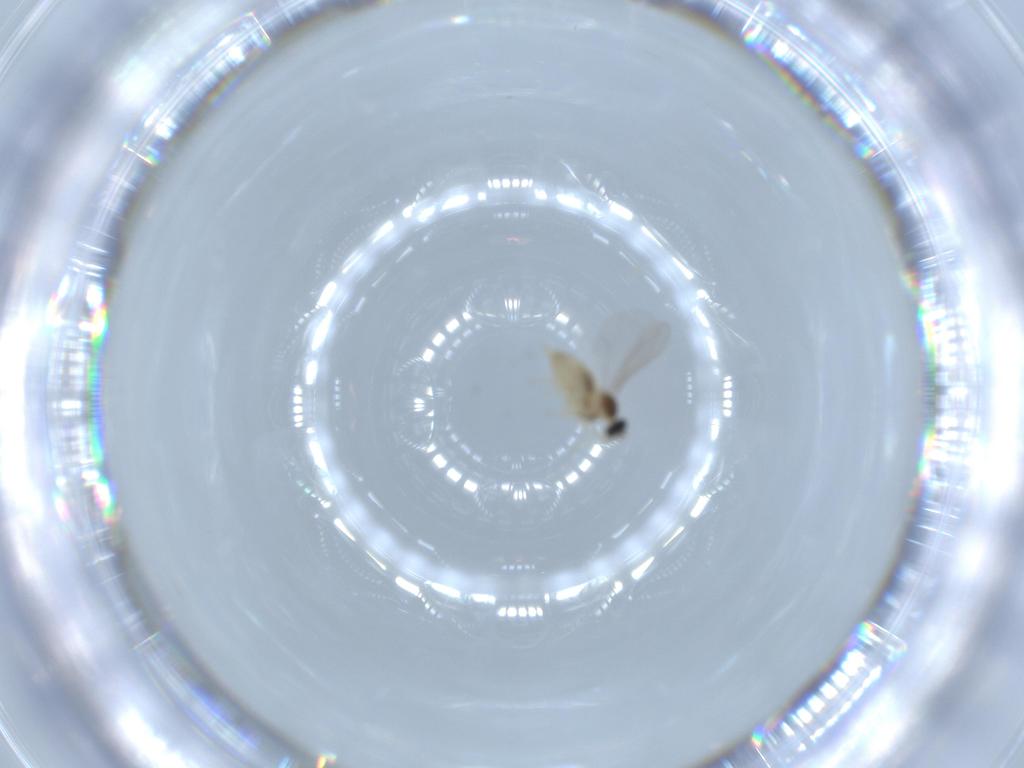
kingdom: Animalia
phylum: Arthropoda
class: Insecta
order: Diptera
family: Cecidomyiidae
